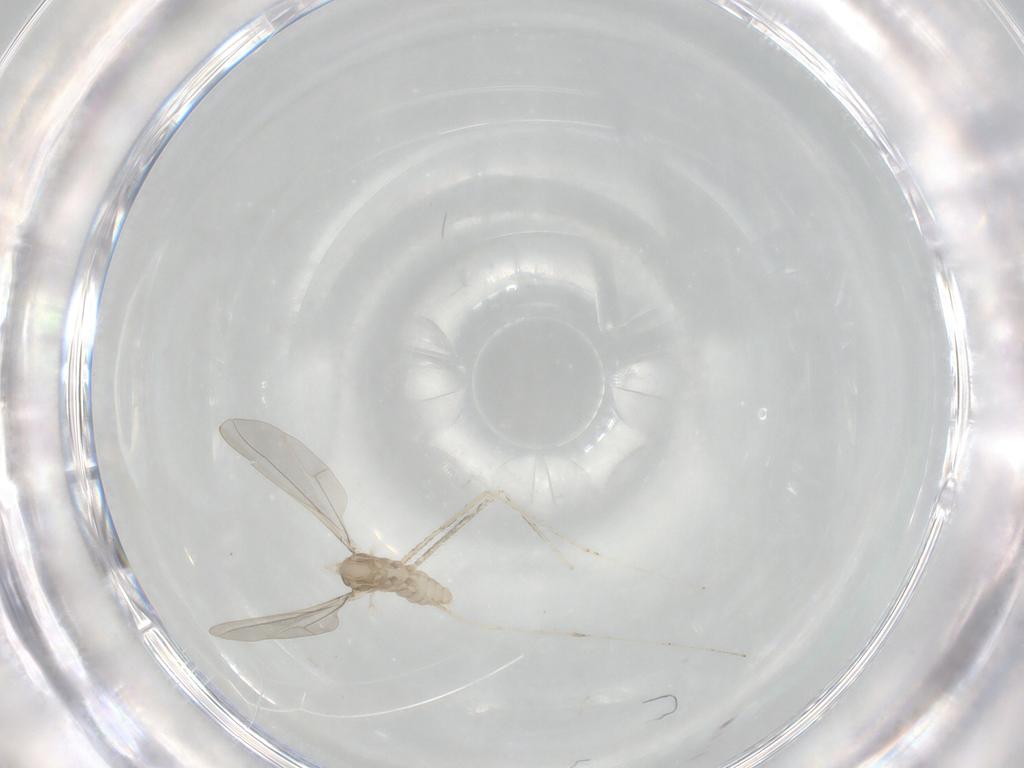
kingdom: Animalia
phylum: Arthropoda
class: Insecta
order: Diptera
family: Cecidomyiidae
